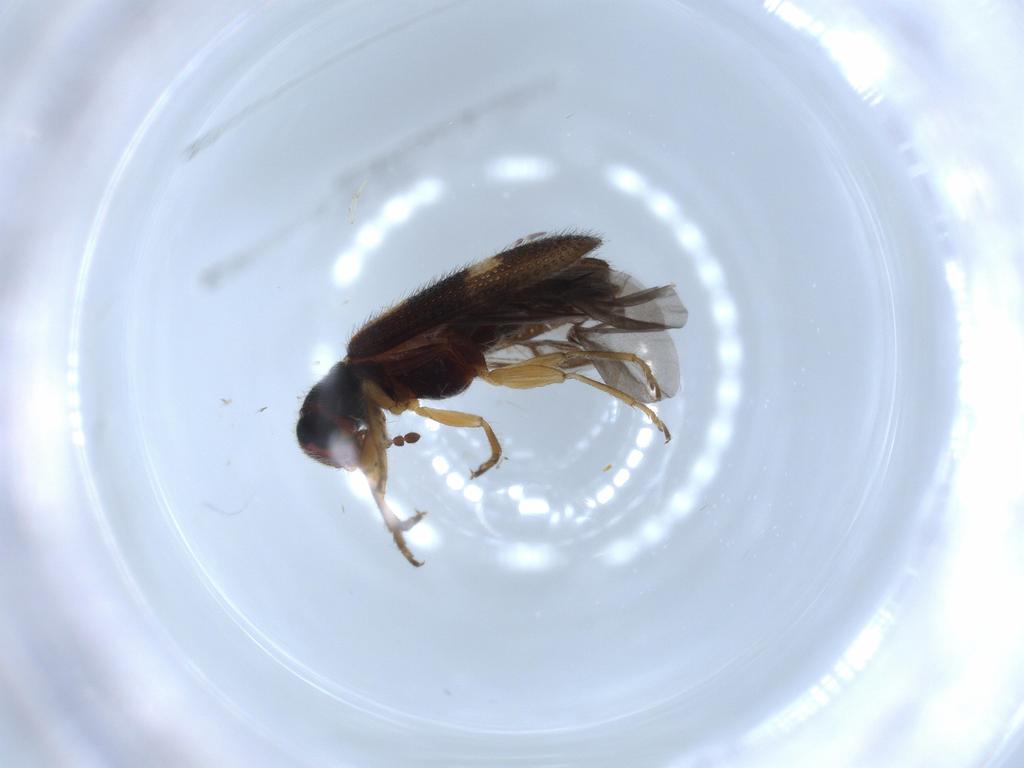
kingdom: Animalia
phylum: Arthropoda
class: Insecta
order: Coleoptera
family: Cleridae
